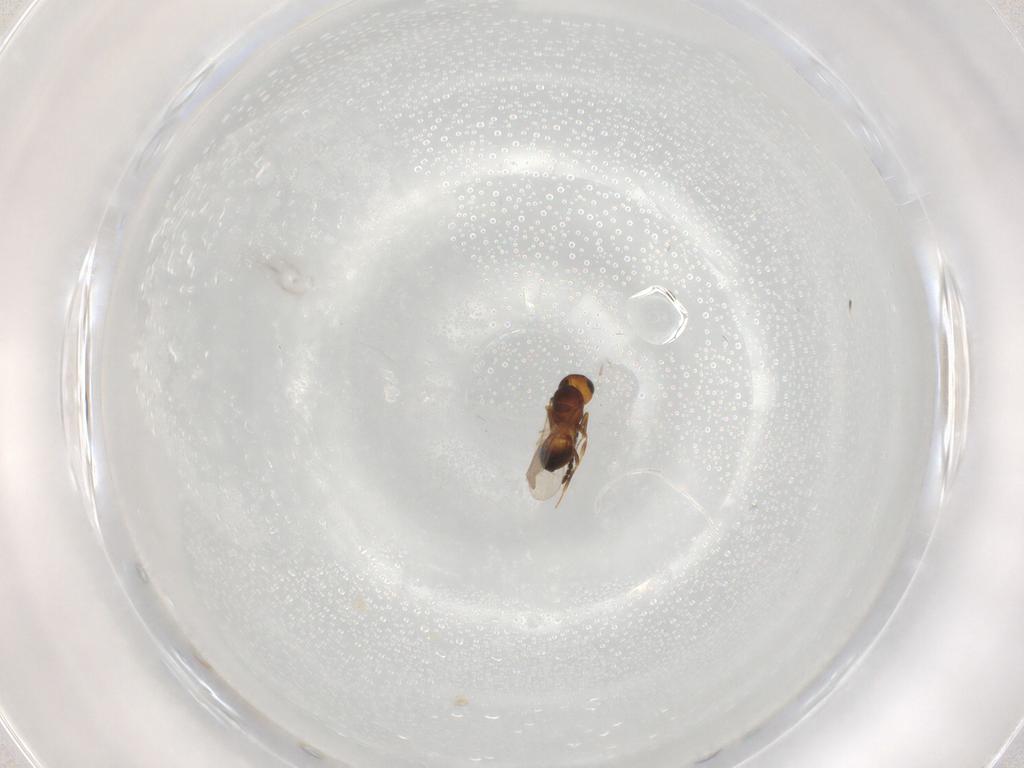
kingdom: Animalia
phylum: Arthropoda
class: Insecta
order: Hymenoptera
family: Scelionidae
